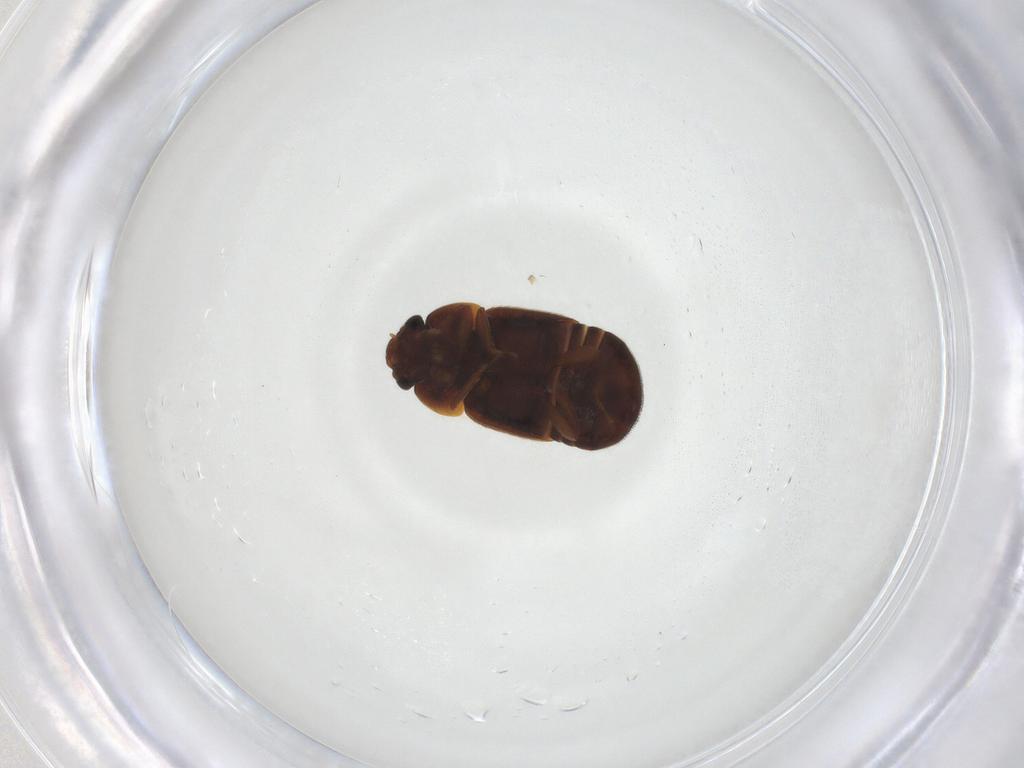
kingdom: Animalia
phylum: Arthropoda
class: Insecta
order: Coleoptera
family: Nitidulidae
